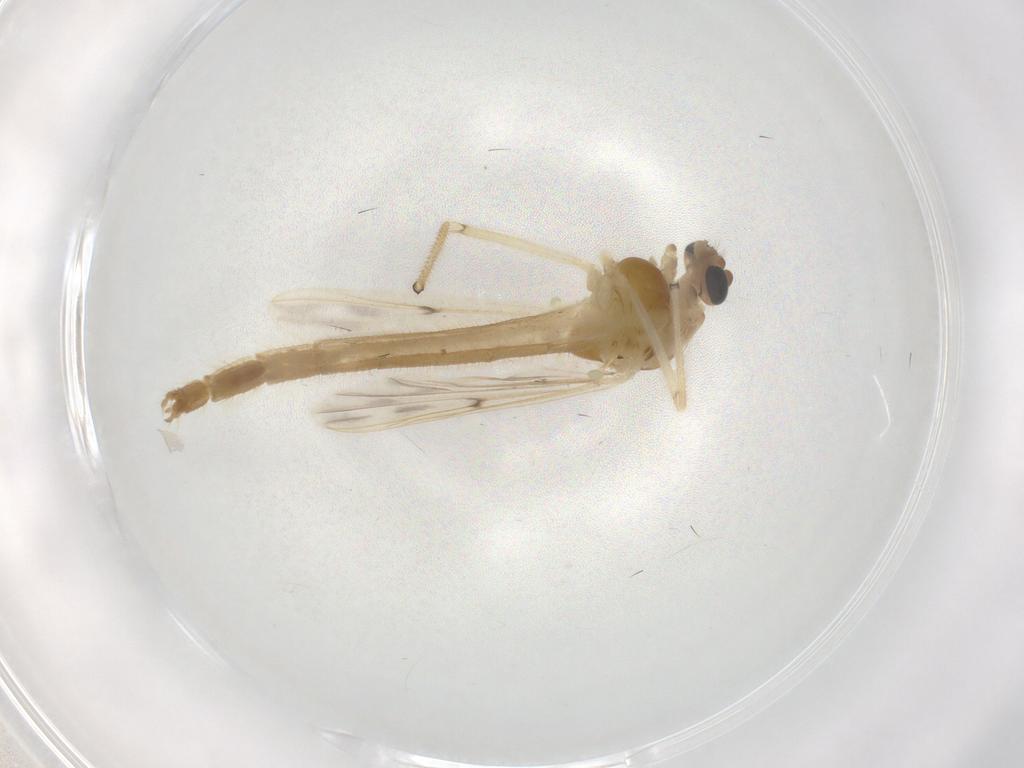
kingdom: Animalia
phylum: Arthropoda
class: Insecta
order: Diptera
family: Chironomidae
